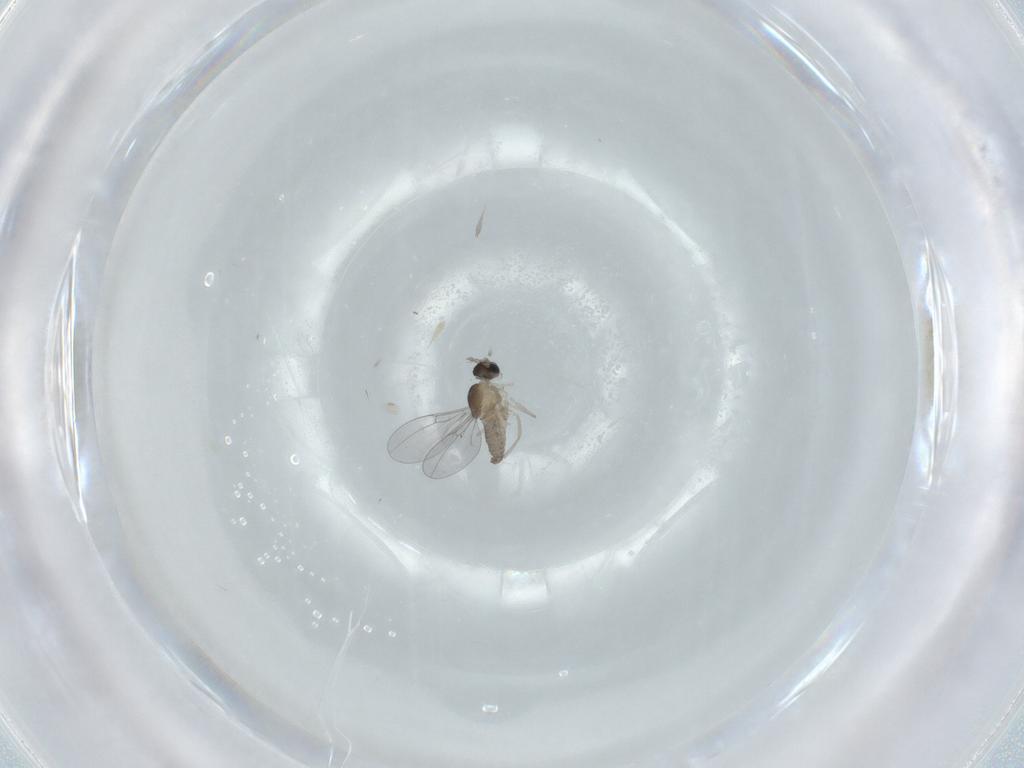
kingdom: Animalia
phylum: Arthropoda
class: Insecta
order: Diptera
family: Cecidomyiidae
